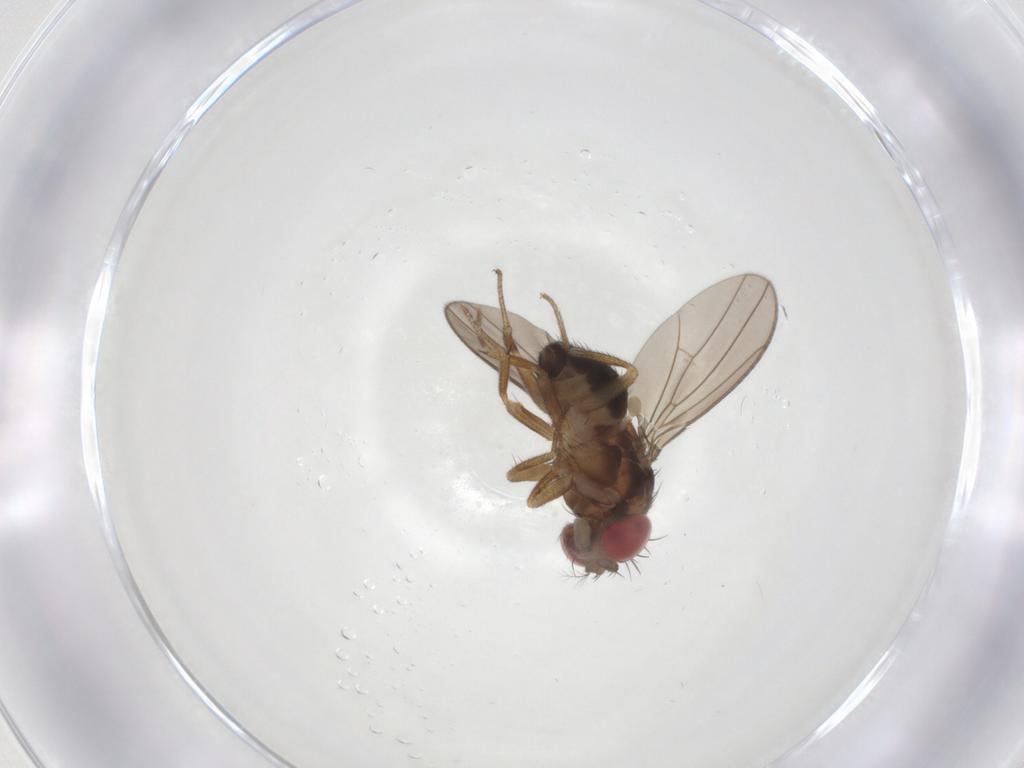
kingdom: Animalia
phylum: Arthropoda
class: Insecta
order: Diptera
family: Drosophilidae
